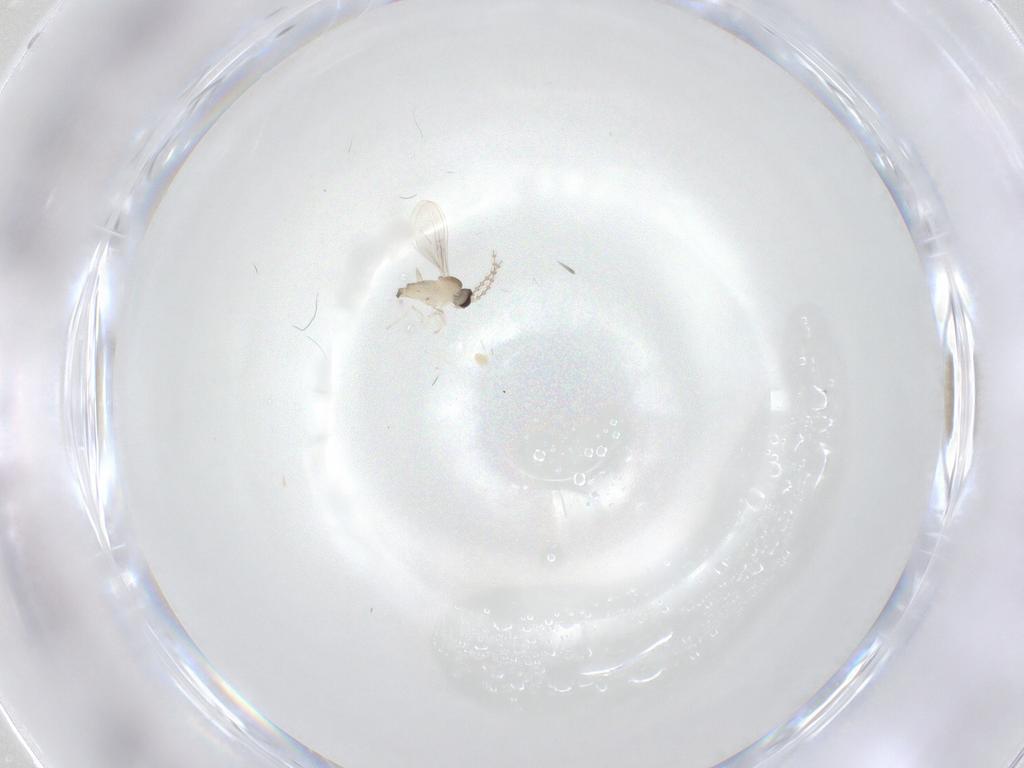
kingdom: Animalia
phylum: Arthropoda
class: Insecta
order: Diptera
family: Cecidomyiidae
